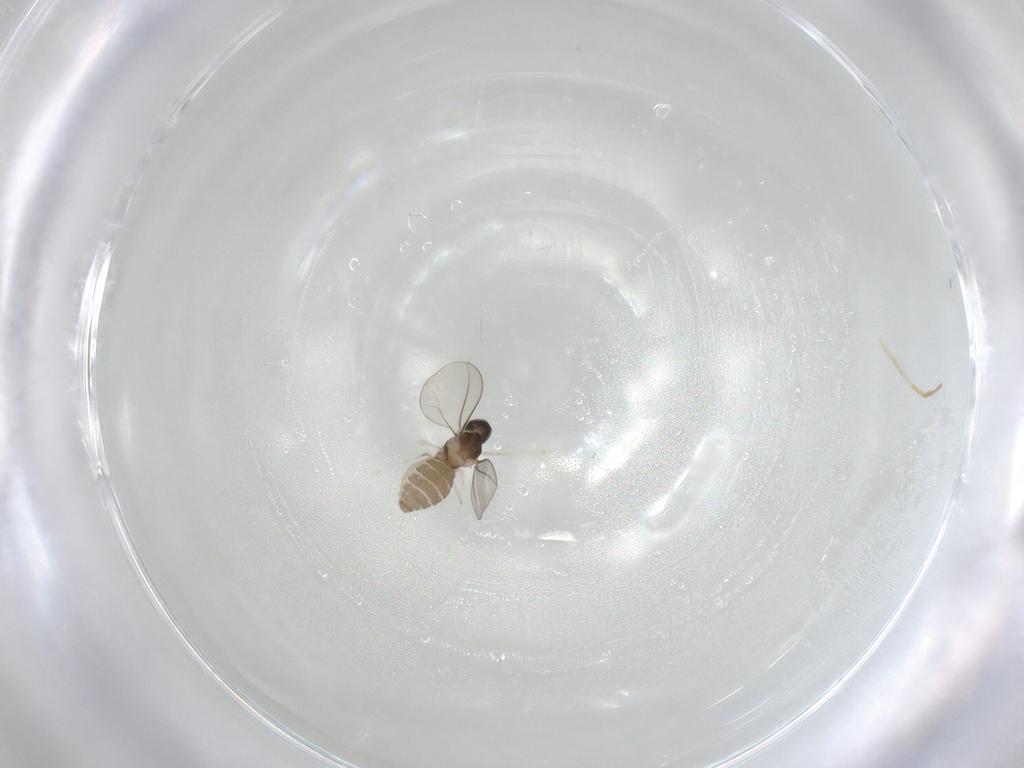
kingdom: Animalia
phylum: Arthropoda
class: Insecta
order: Diptera
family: Cecidomyiidae
